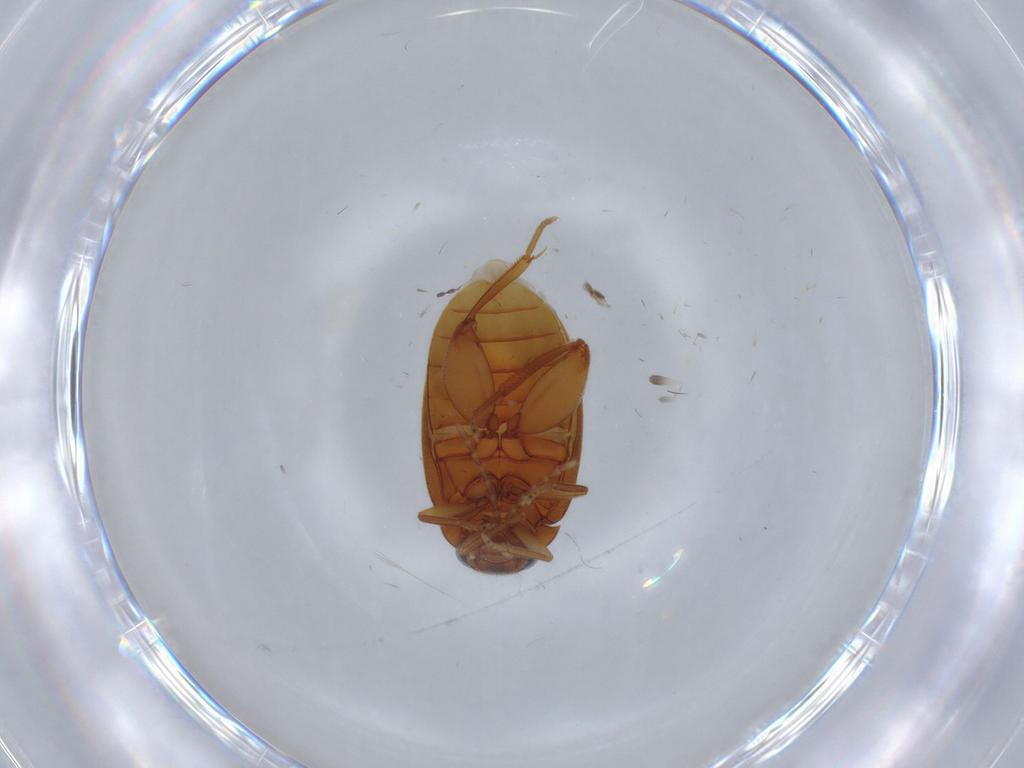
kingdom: Animalia
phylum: Arthropoda
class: Insecta
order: Coleoptera
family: Scirtidae
